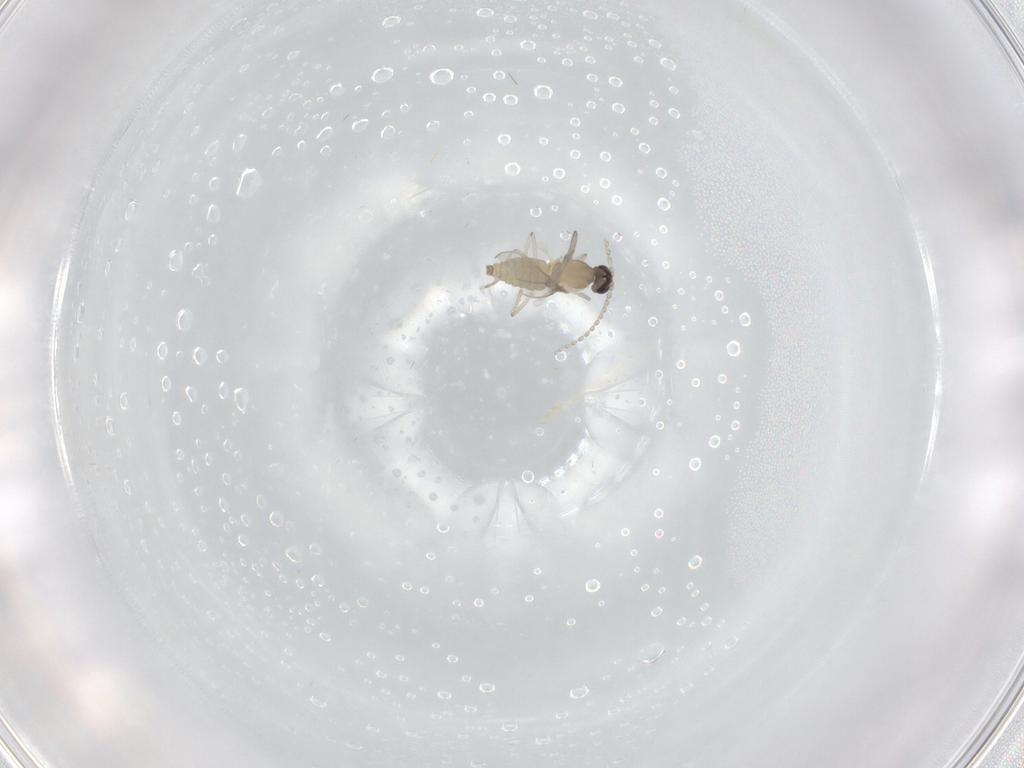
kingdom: Animalia
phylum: Arthropoda
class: Insecta
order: Diptera
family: Cecidomyiidae
